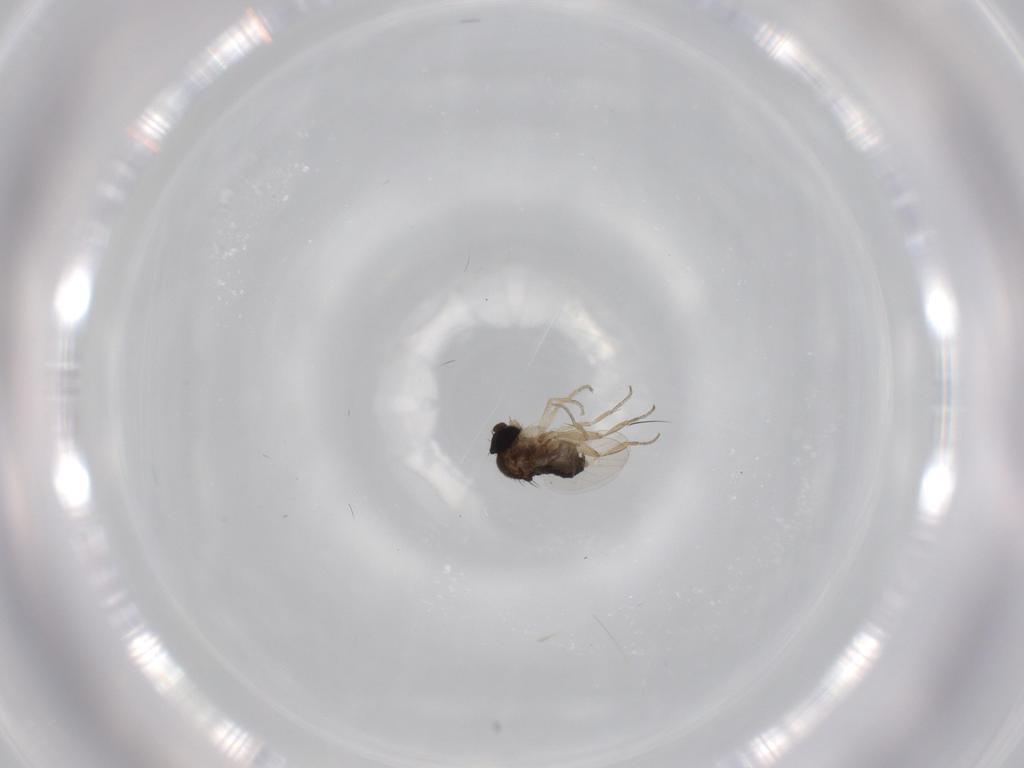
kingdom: Animalia
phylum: Arthropoda
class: Insecta
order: Diptera
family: Phoridae
